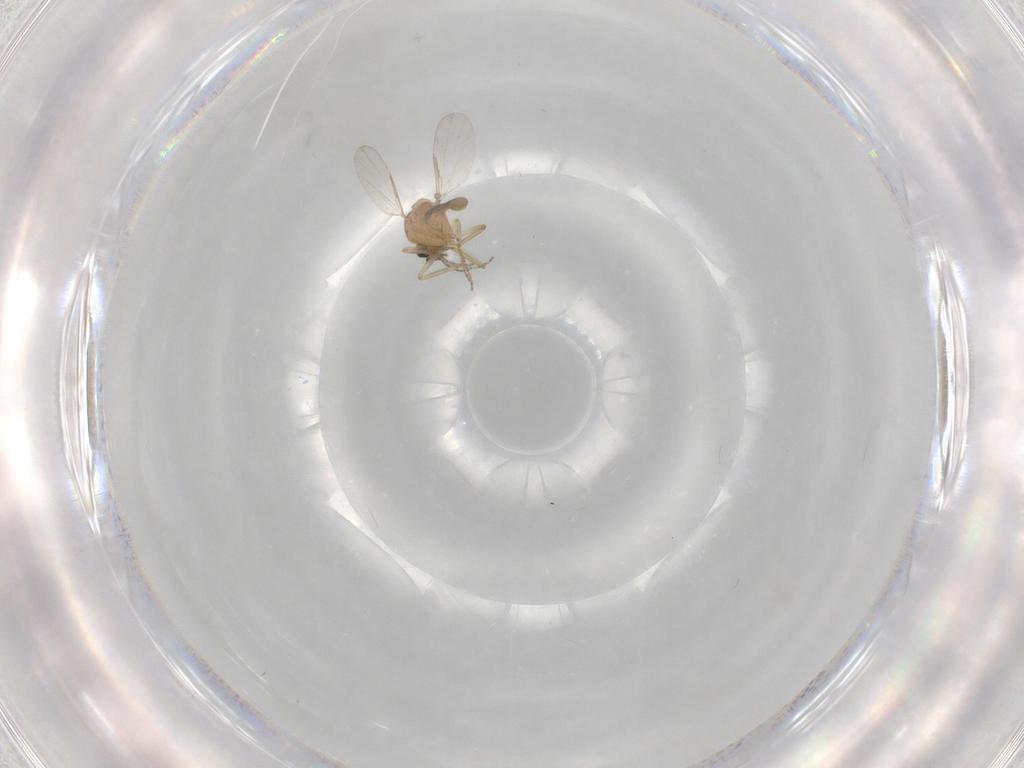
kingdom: Animalia
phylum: Arthropoda
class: Insecta
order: Diptera
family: Ceratopogonidae
